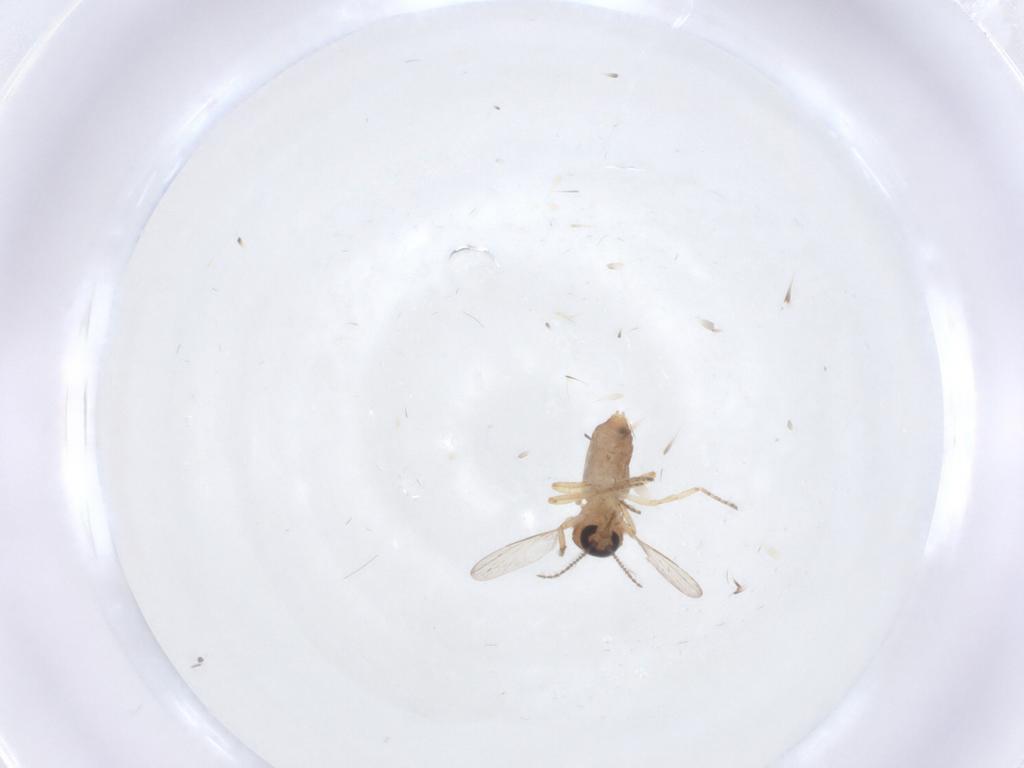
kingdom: Animalia
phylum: Arthropoda
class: Insecta
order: Diptera
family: Ceratopogonidae
